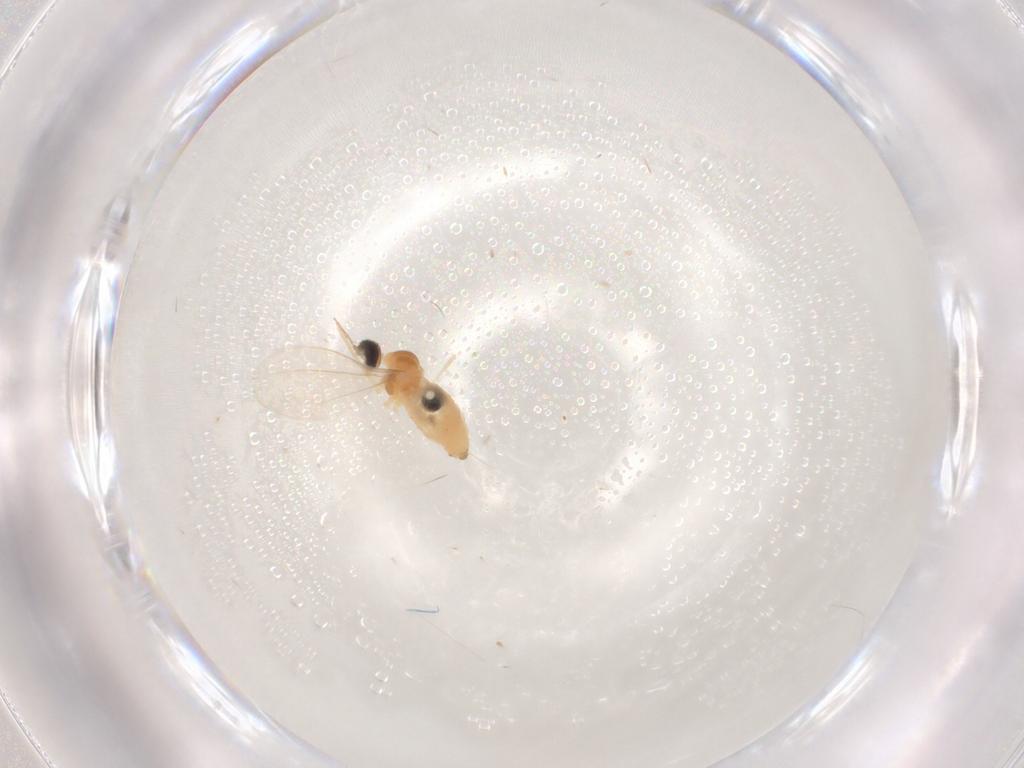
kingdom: Animalia
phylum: Arthropoda
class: Insecta
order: Diptera
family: Cecidomyiidae
